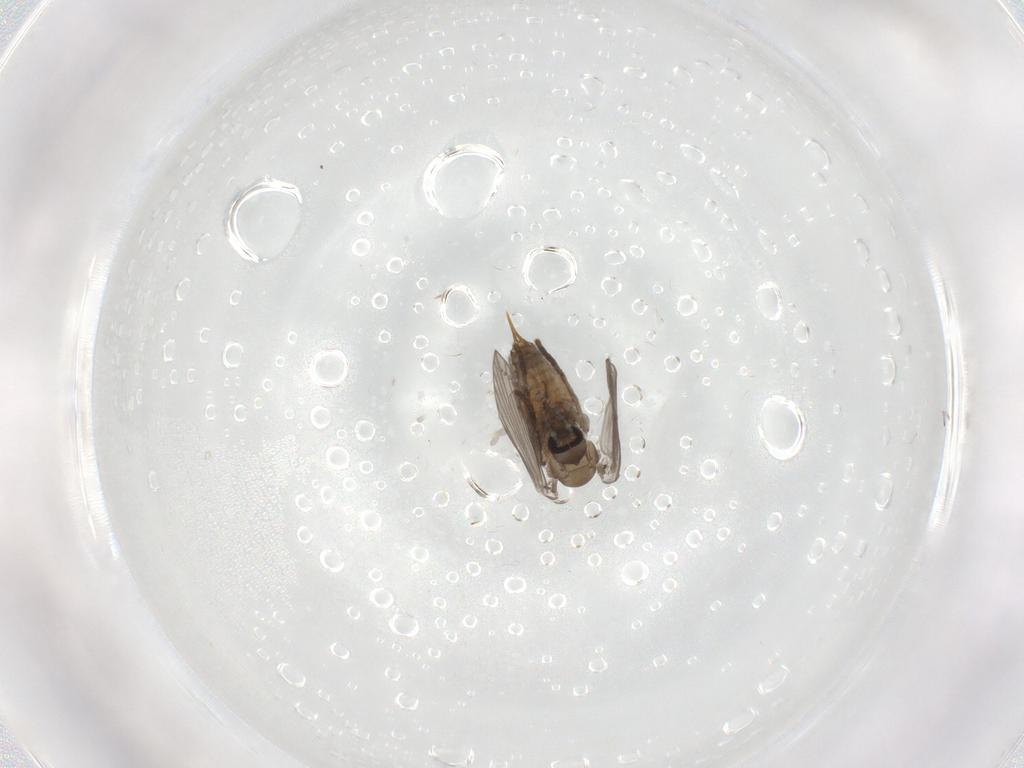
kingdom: Animalia
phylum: Arthropoda
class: Insecta
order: Diptera
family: Psychodidae
